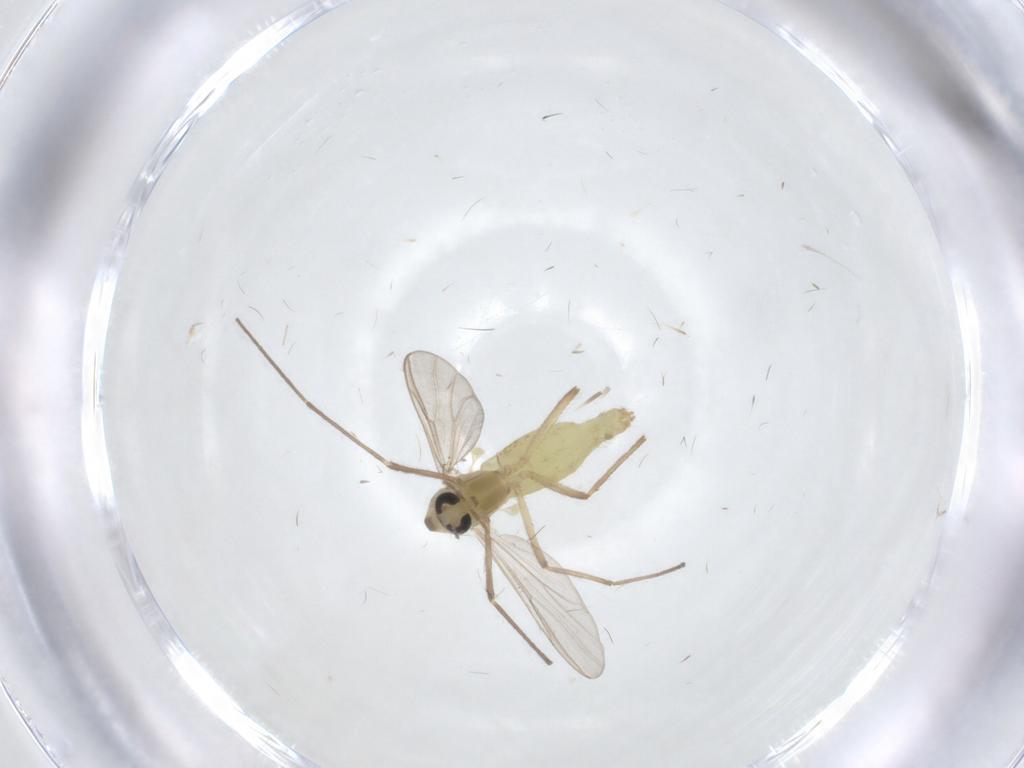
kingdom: Animalia
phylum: Arthropoda
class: Insecta
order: Diptera
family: Chironomidae
